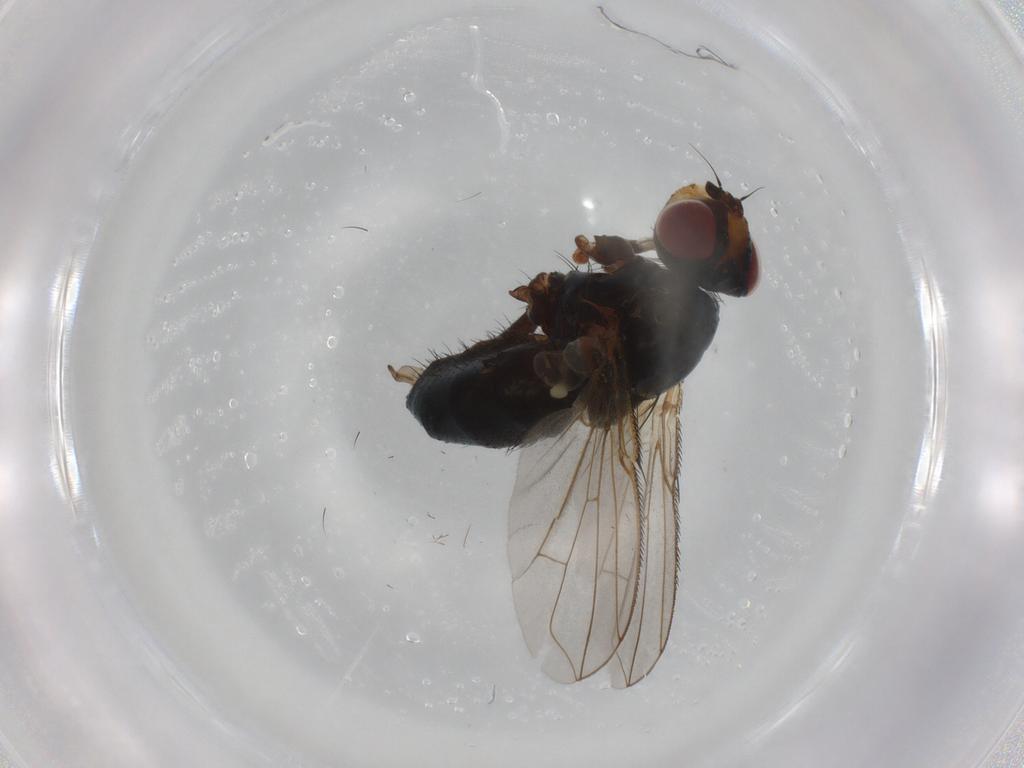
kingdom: Animalia
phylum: Arthropoda
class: Insecta
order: Diptera
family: Calliphoridae
